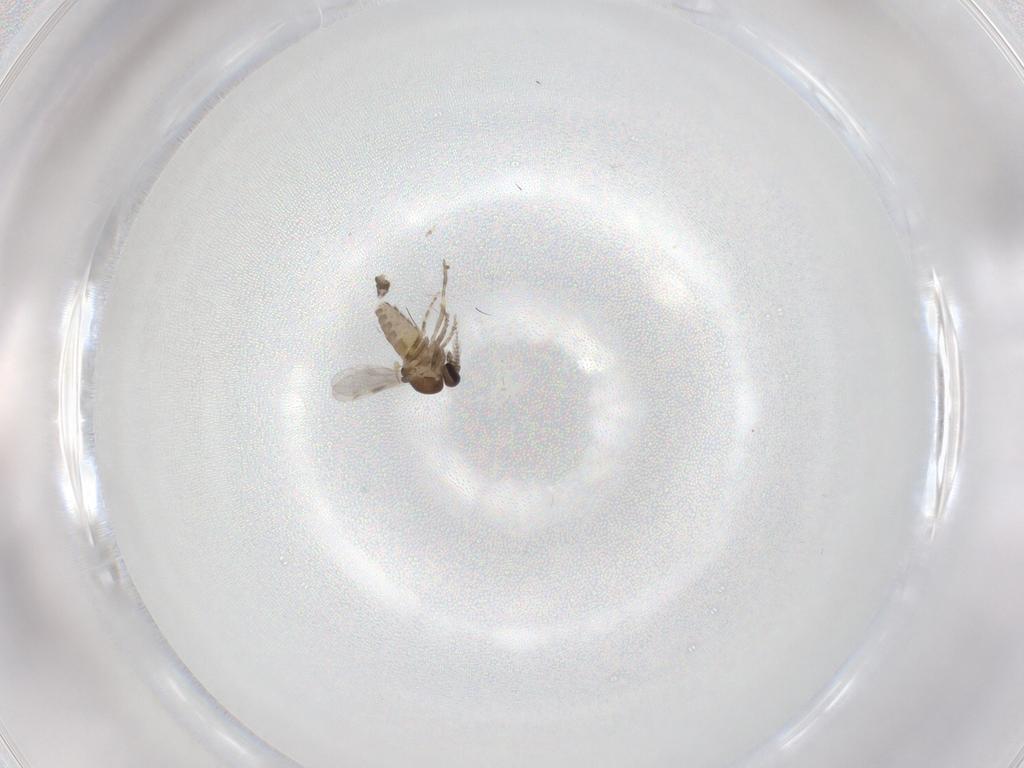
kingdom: Animalia
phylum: Arthropoda
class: Insecta
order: Diptera
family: Ceratopogonidae
